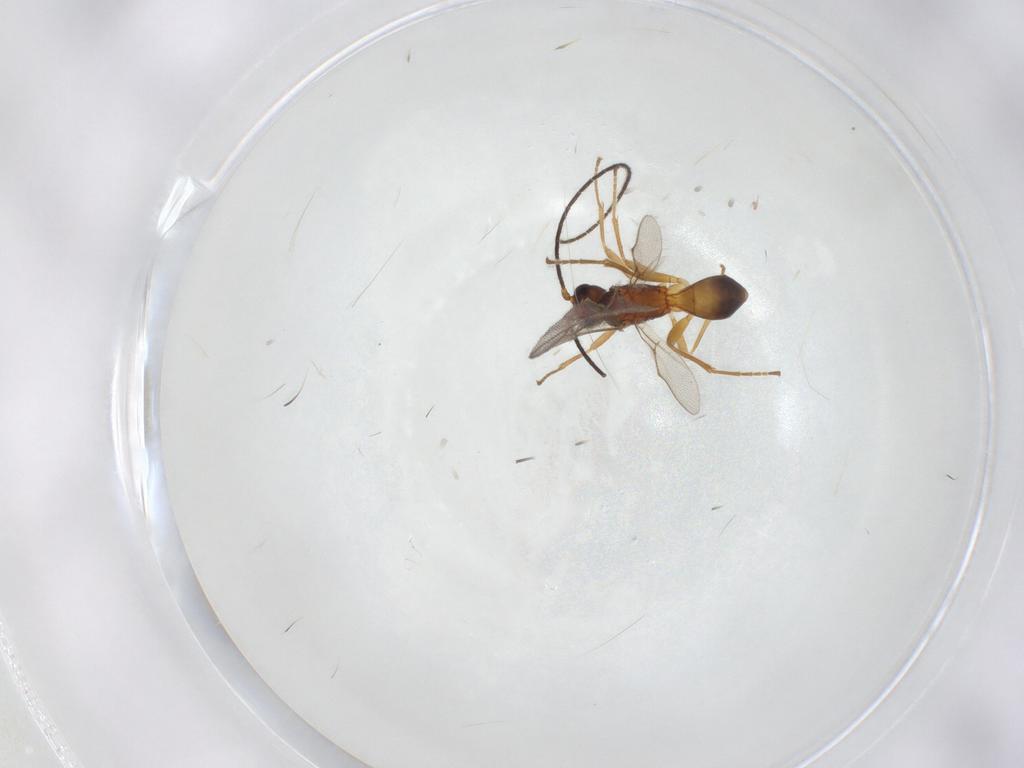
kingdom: Animalia
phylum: Arthropoda
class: Insecta
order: Hymenoptera
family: Braconidae
